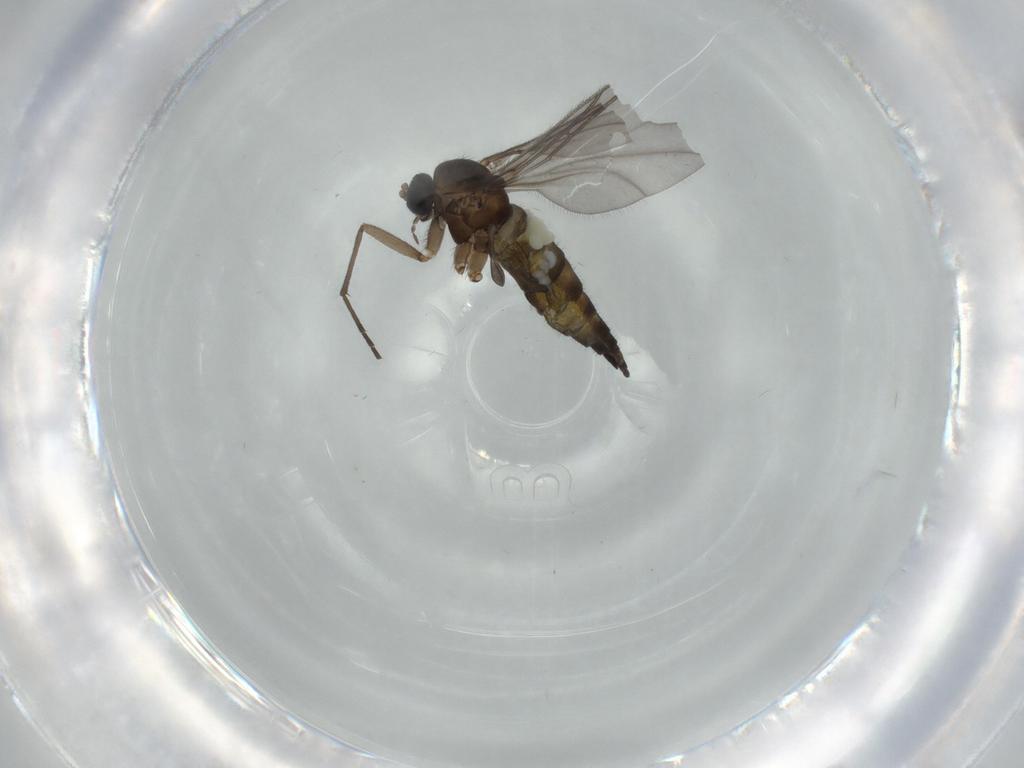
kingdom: Animalia
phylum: Arthropoda
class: Insecta
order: Diptera
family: Sciaridae
